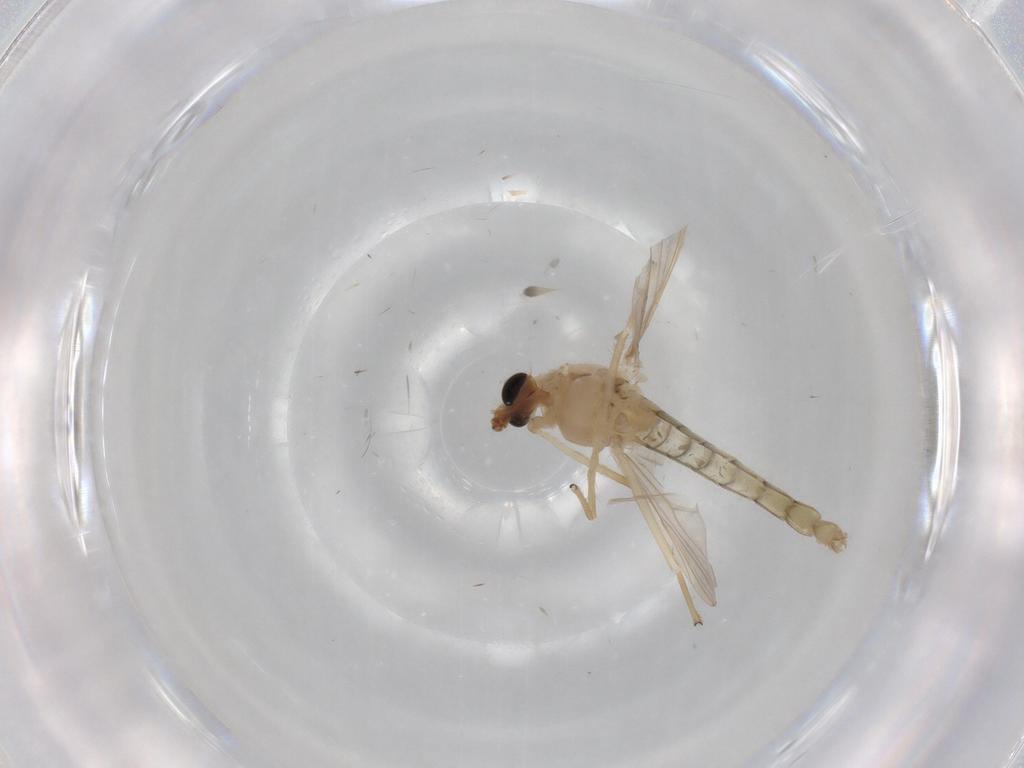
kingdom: Animalia
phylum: Arthropoda
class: Insecta
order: Diptera
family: Chironomidae
